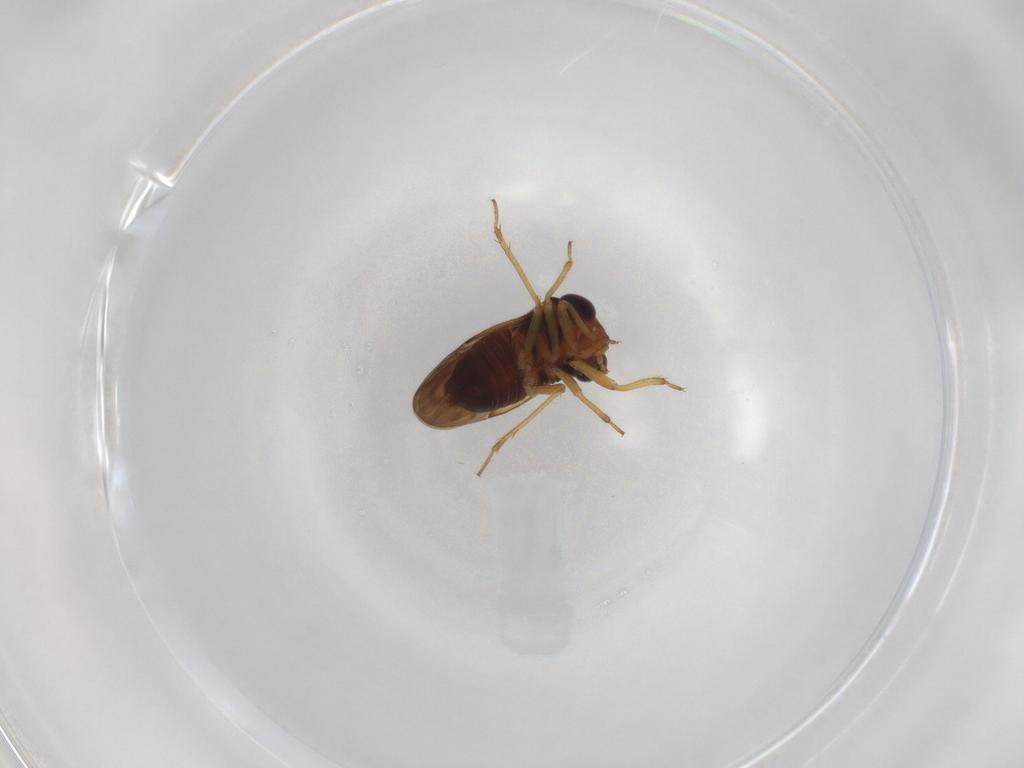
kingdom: Animalia
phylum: Arthropoda
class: Insecta
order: Hemiptera
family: Schizopteridae
